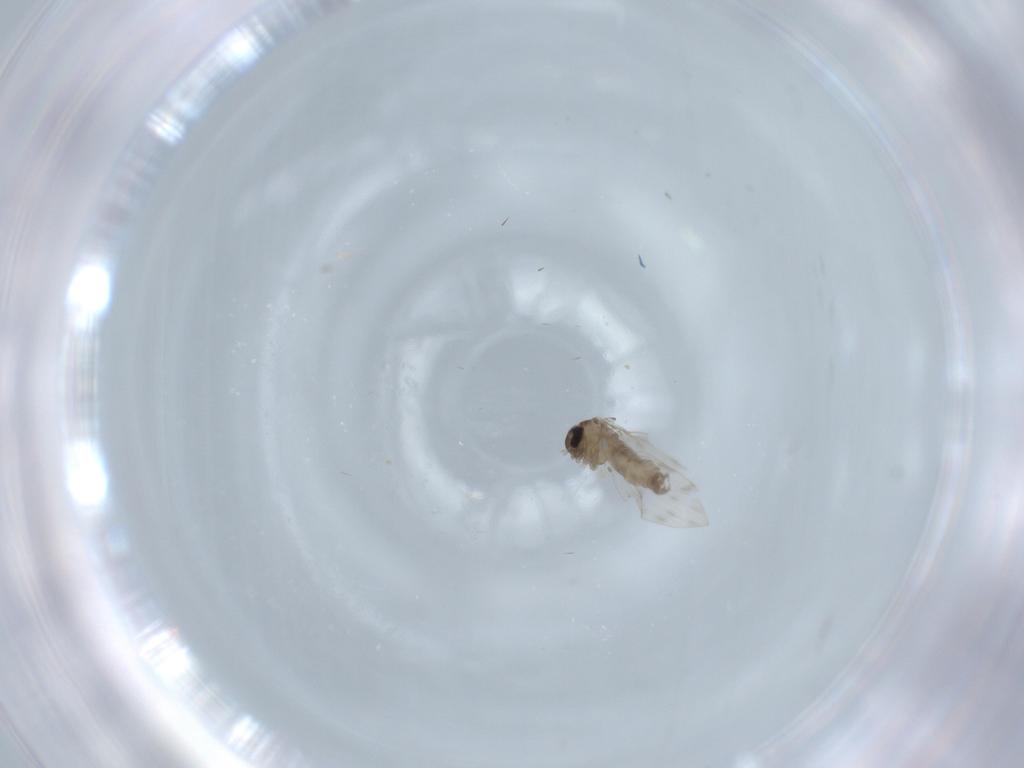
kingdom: Animalia
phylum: Arthropoda
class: Insecta
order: Diptera
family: Psychodidae
